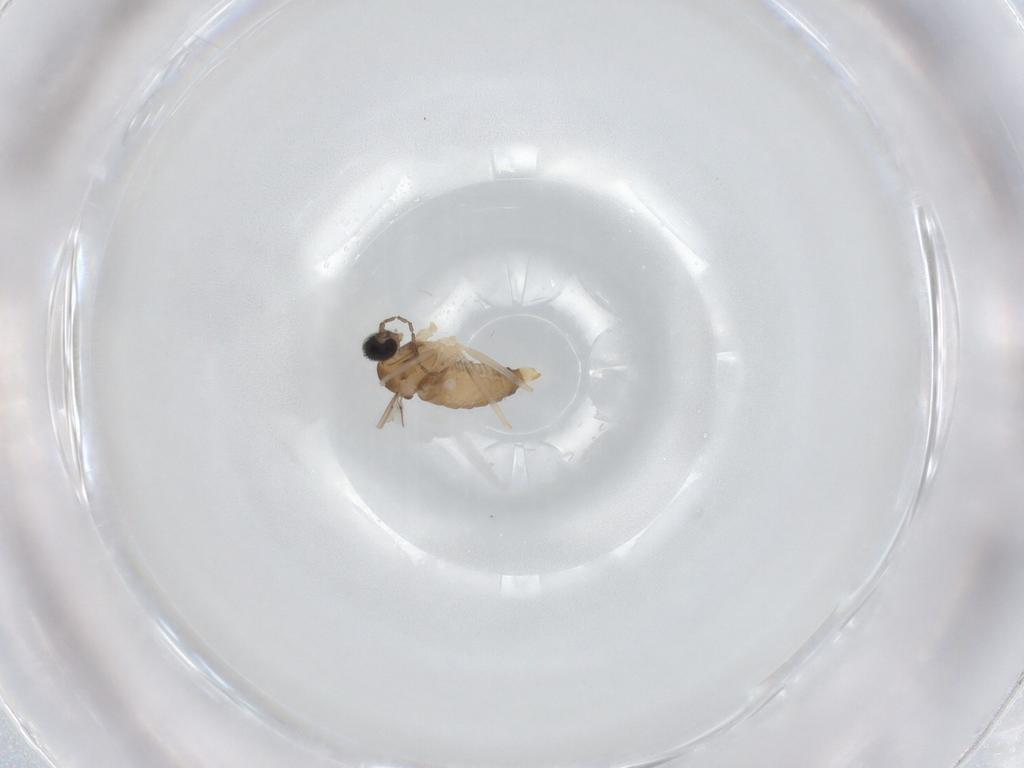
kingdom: Animalia
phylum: Arthropoda
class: Insecta
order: Diptera
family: Cecidomyiidae
